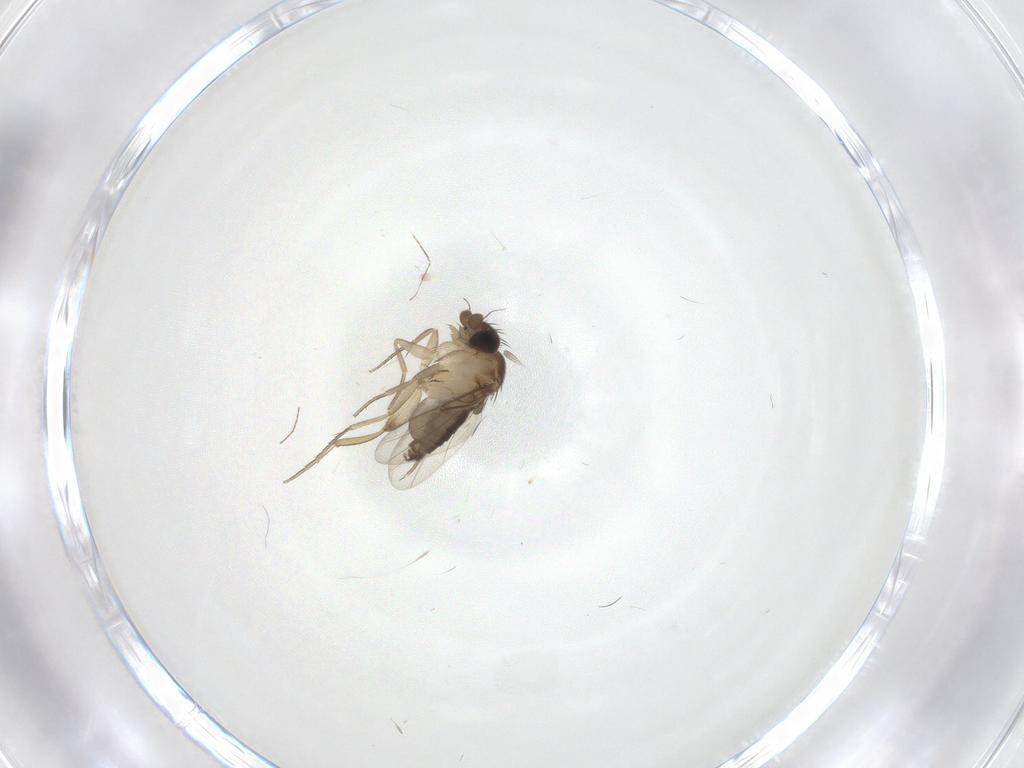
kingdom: Animalia
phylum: Arthropoda
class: Insecta
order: Diptera
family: Phoridae
